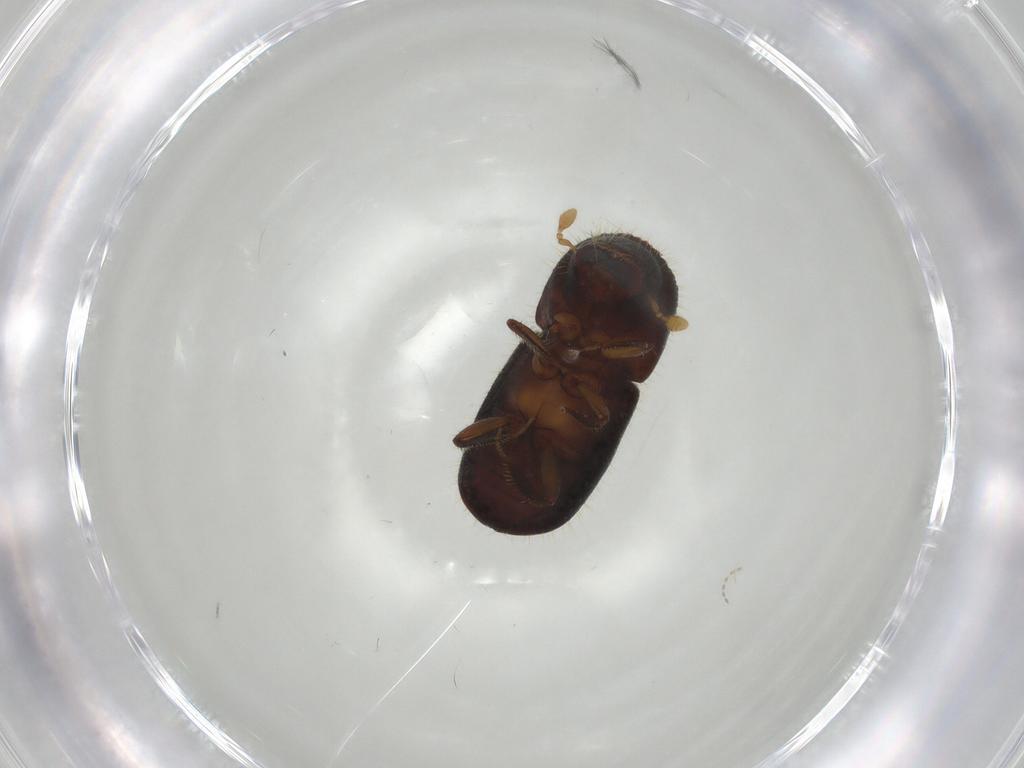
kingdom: Animalia
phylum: Arthropoda
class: Insecta
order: Coleoptera
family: Curculionidae
